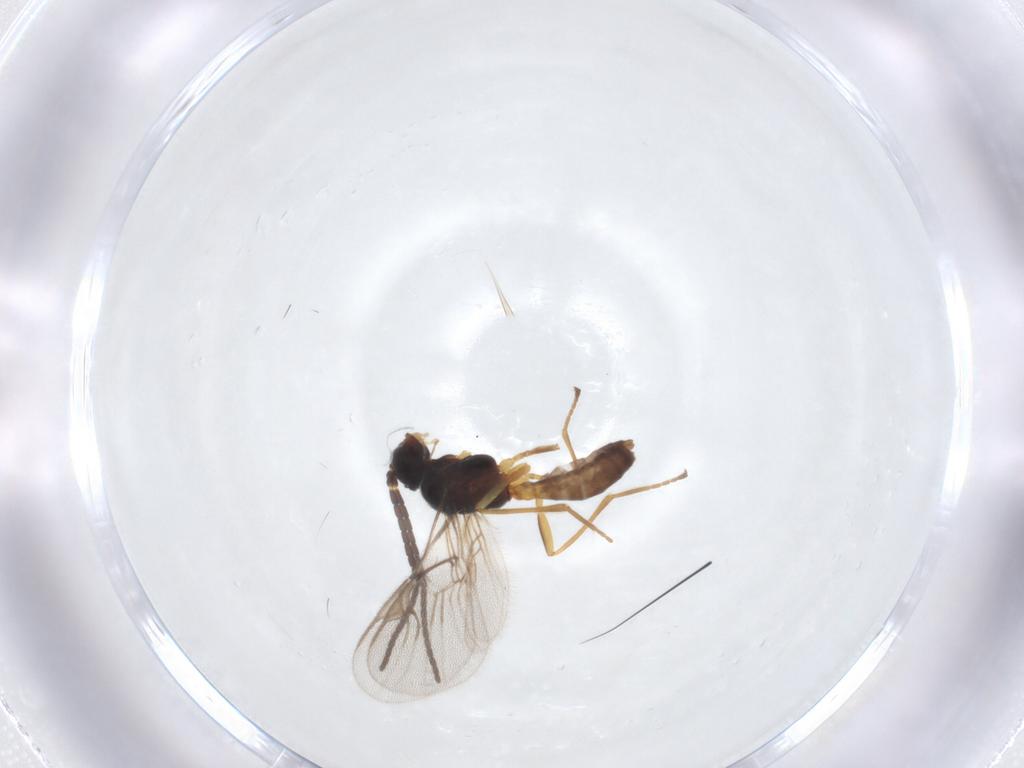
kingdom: Animalia
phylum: Arthropoda
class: Insecta
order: Hymenoptera
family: Braconidae
